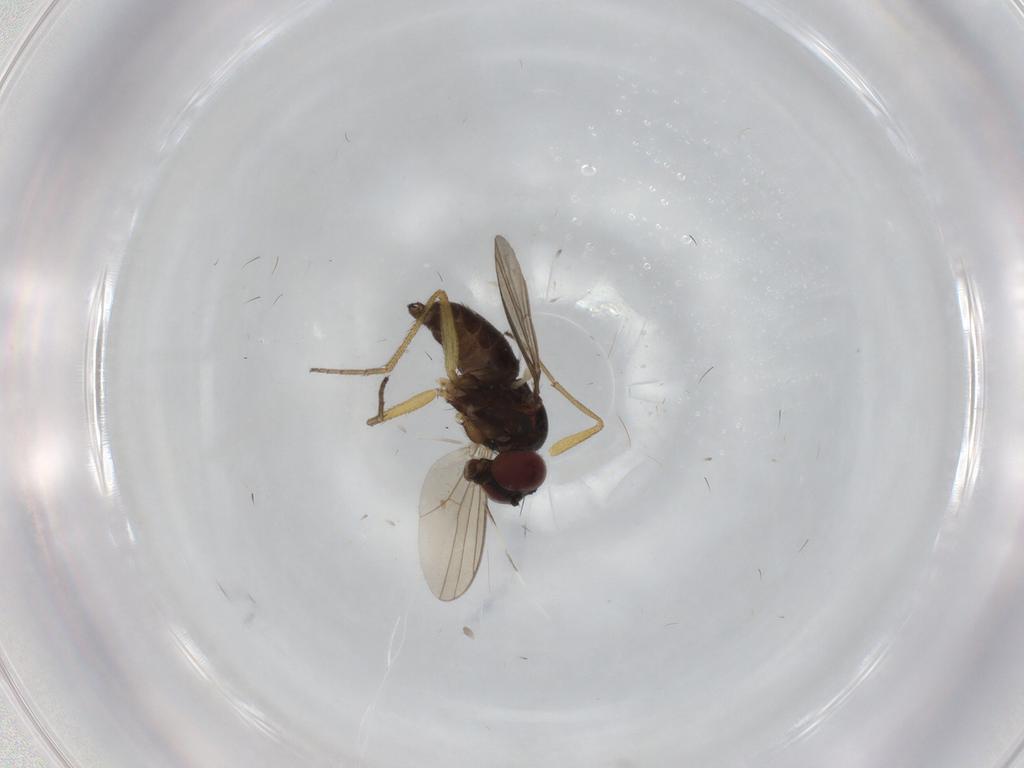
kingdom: Animalia
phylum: Arthropoda
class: Insecta
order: Diptera
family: Dolichopodidae
